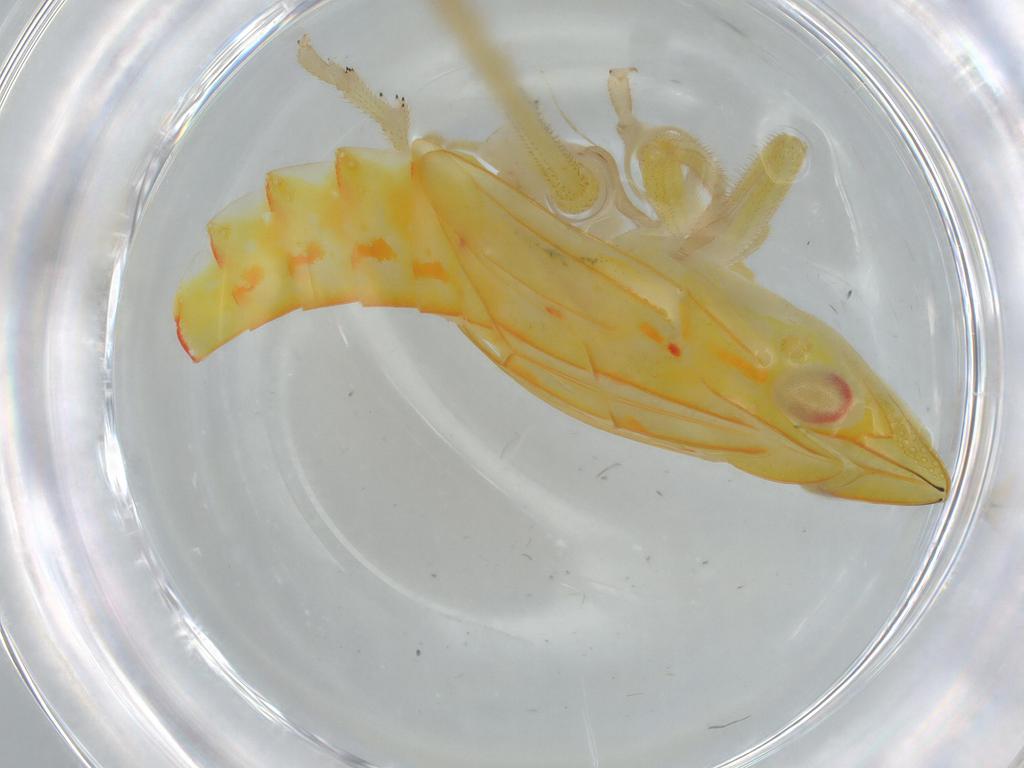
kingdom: Animalia
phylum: Arthropoda
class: Insecta
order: Hemiptera
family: Tropiduchidae
